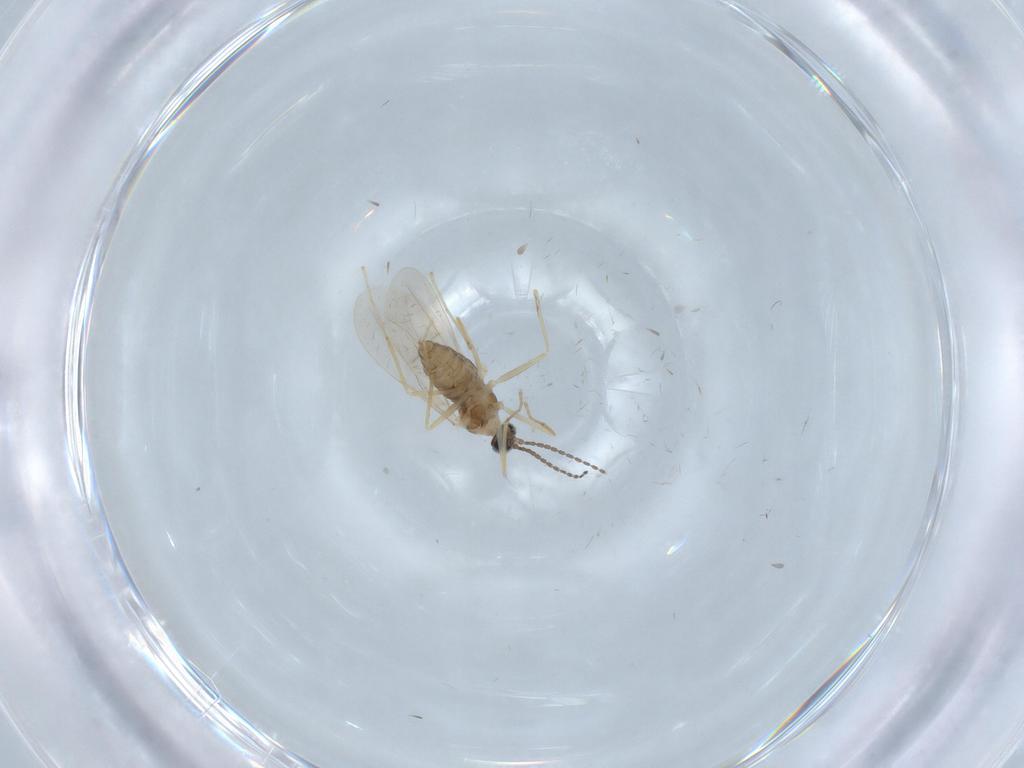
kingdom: Animalia
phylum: Arthropoda
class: Insecta
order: Diptera
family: Cecidomyiidae
